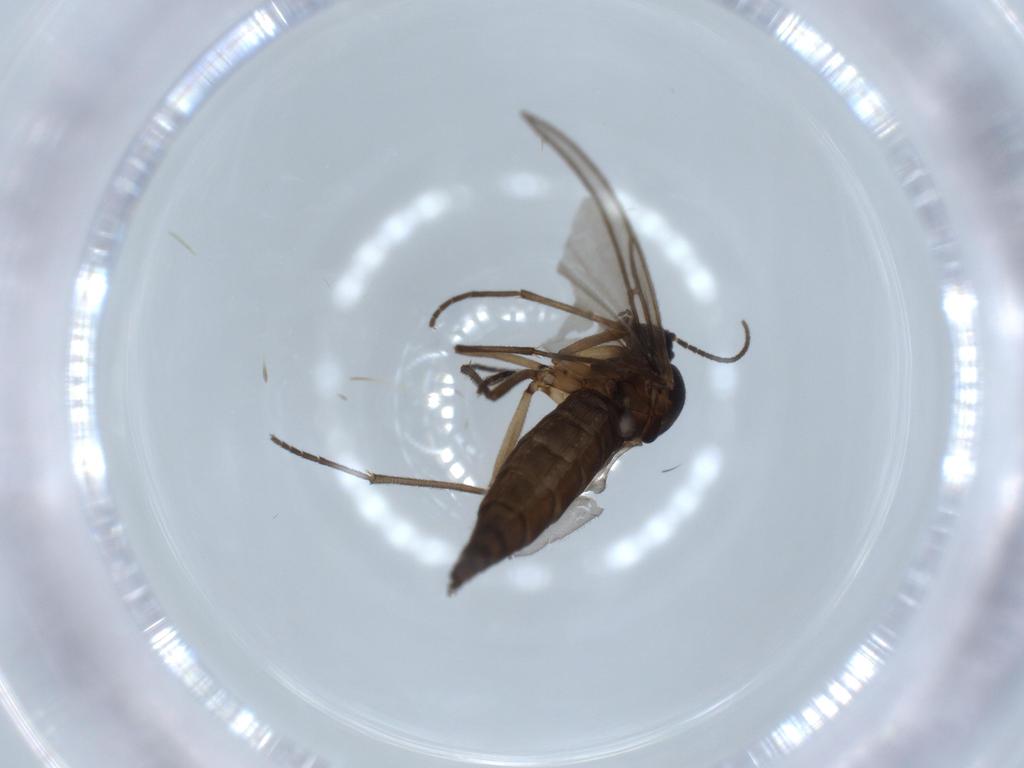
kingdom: Animalia
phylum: Arthropoda
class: Insecta
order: Diptera
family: Sciaridae
